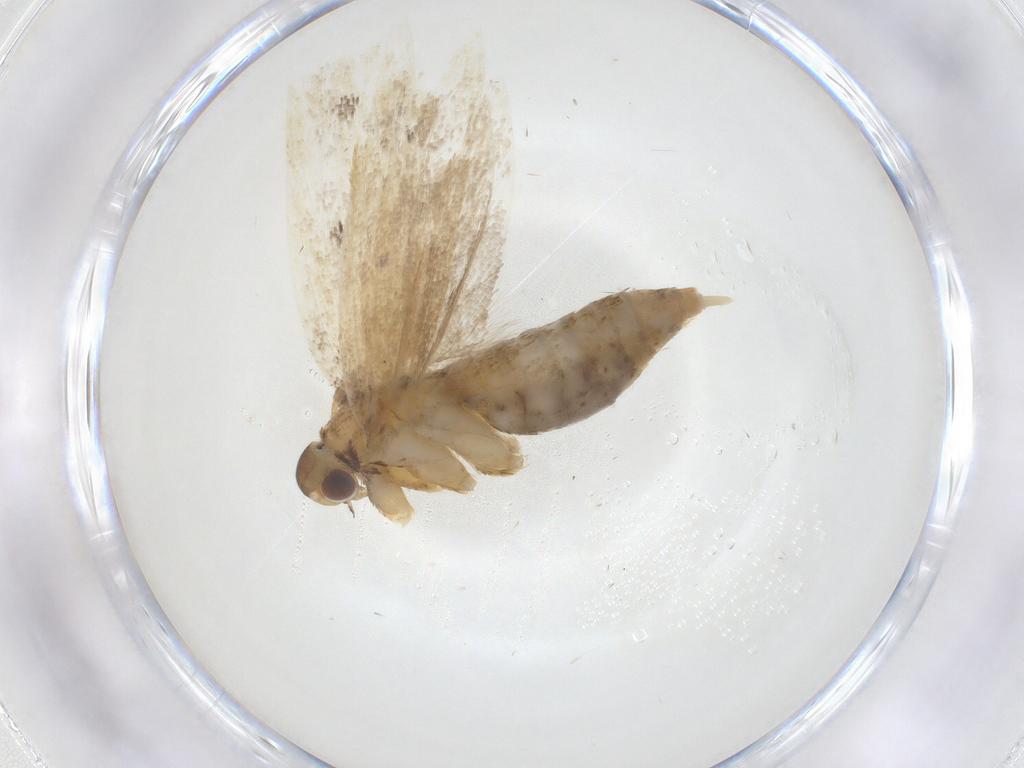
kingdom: Animalia
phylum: Arthropoda
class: Insecta
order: Lepidoptera
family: Lecithoceridae
